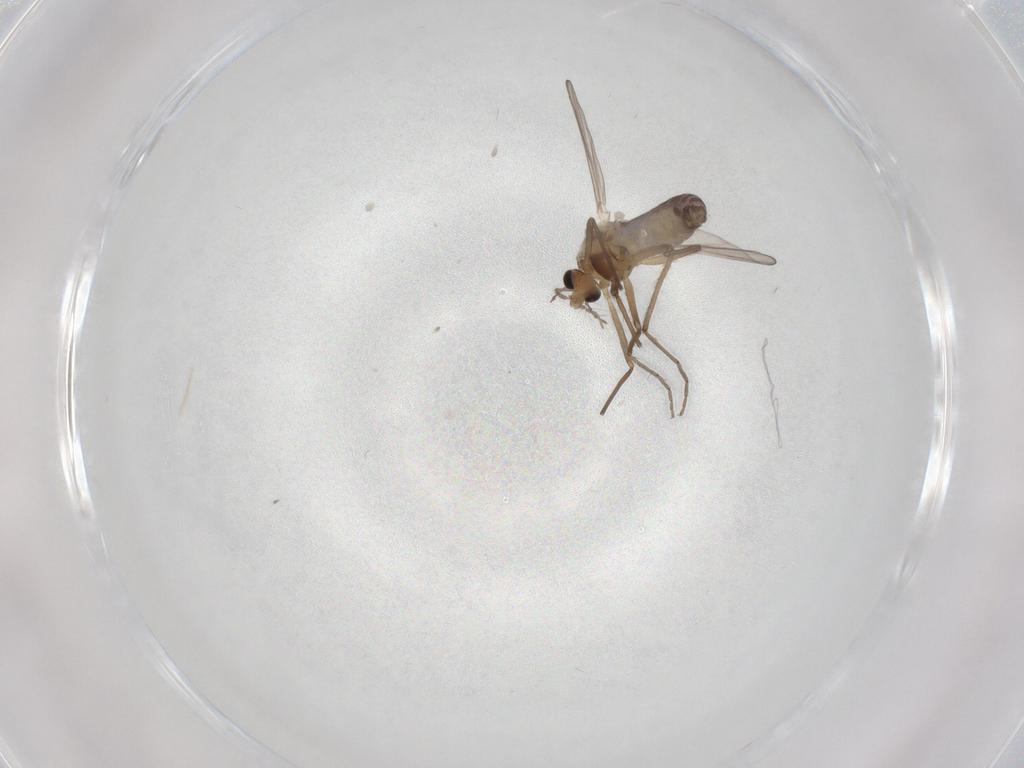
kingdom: Animalia
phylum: Arthropoda
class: Insecta
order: Diptera
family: Chironomidae
